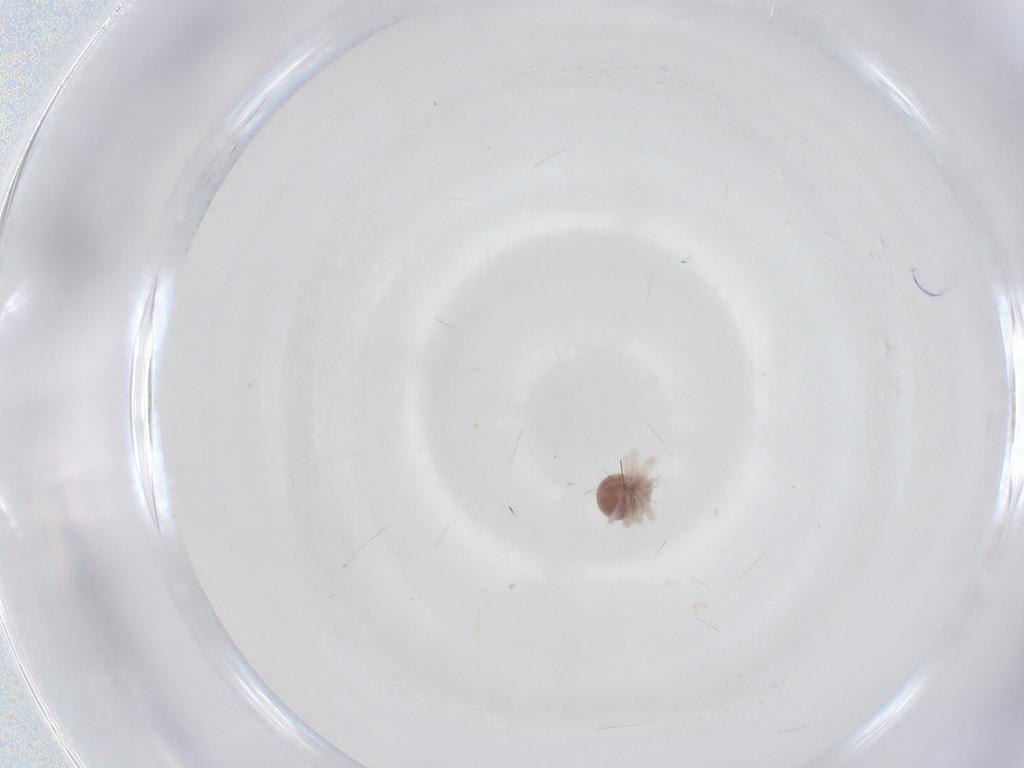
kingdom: Animalia
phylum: Arthropoda
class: Arachnida
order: Trombidiformes
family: Anystidae
